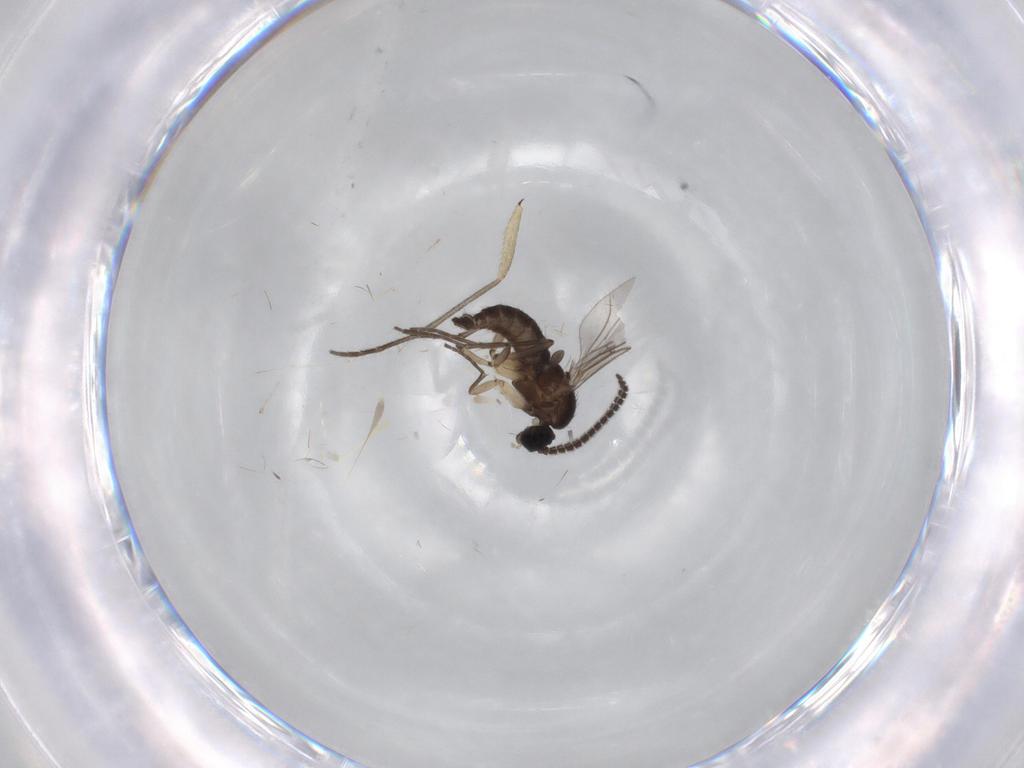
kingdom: Animalia
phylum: Arthropoda
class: Insecta
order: Diptera
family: Sciaridae
